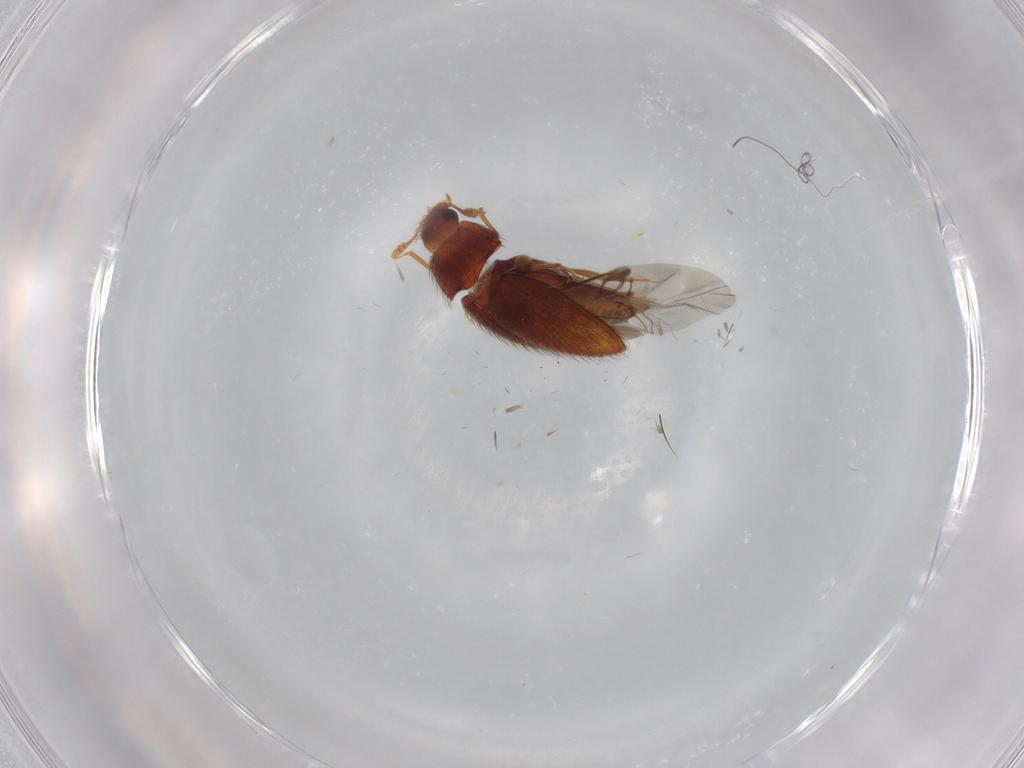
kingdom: Animalia
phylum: Arthropoda
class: Insecta
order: Coleoptera
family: Biphyllidae
